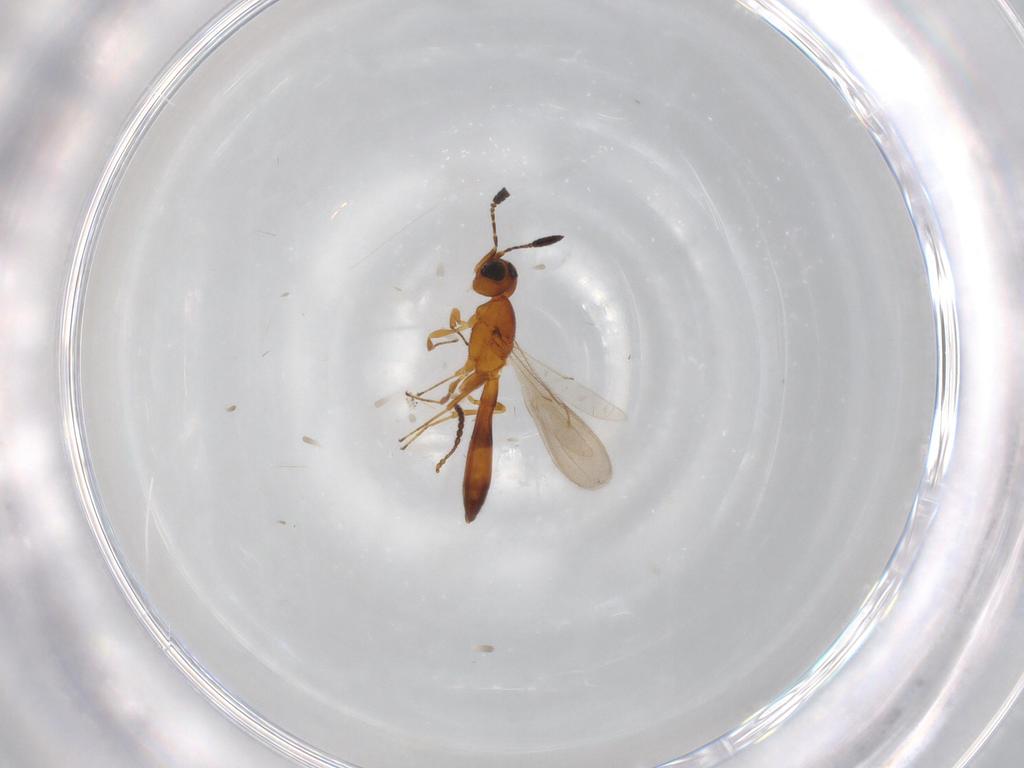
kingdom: Animalia
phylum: Arthropoda
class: Insecta
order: Hymenoptera
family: Figitidae
